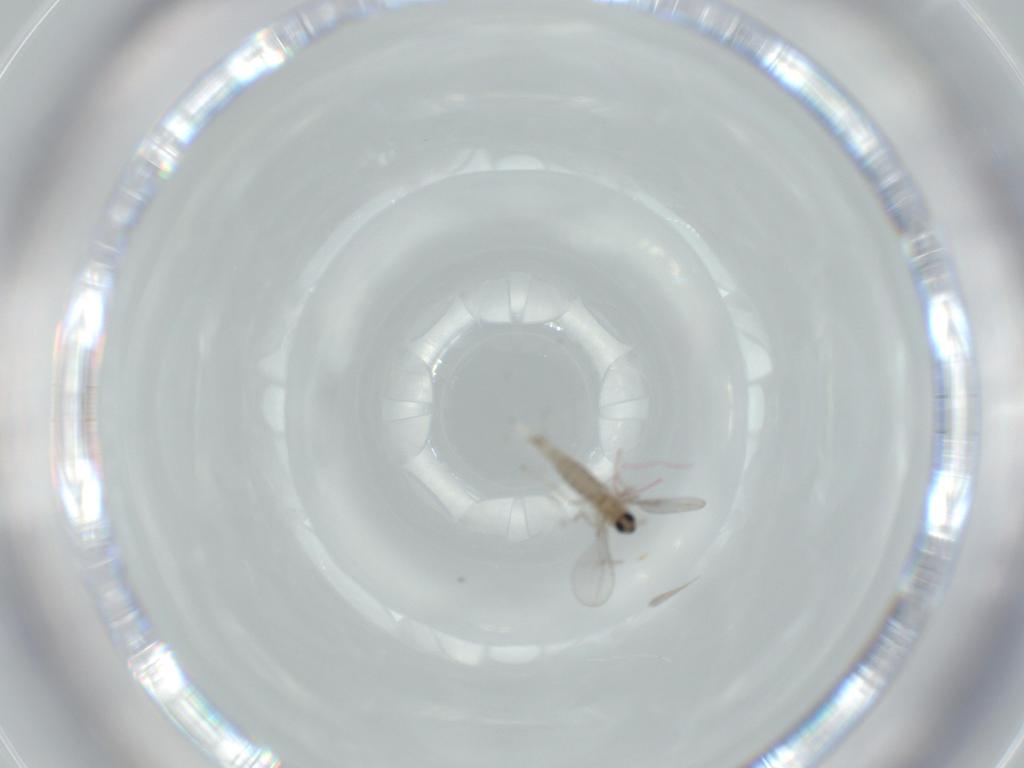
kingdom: Animalia
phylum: Arthropoda
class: Insecta
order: Diptera
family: Cecidomyiidae
